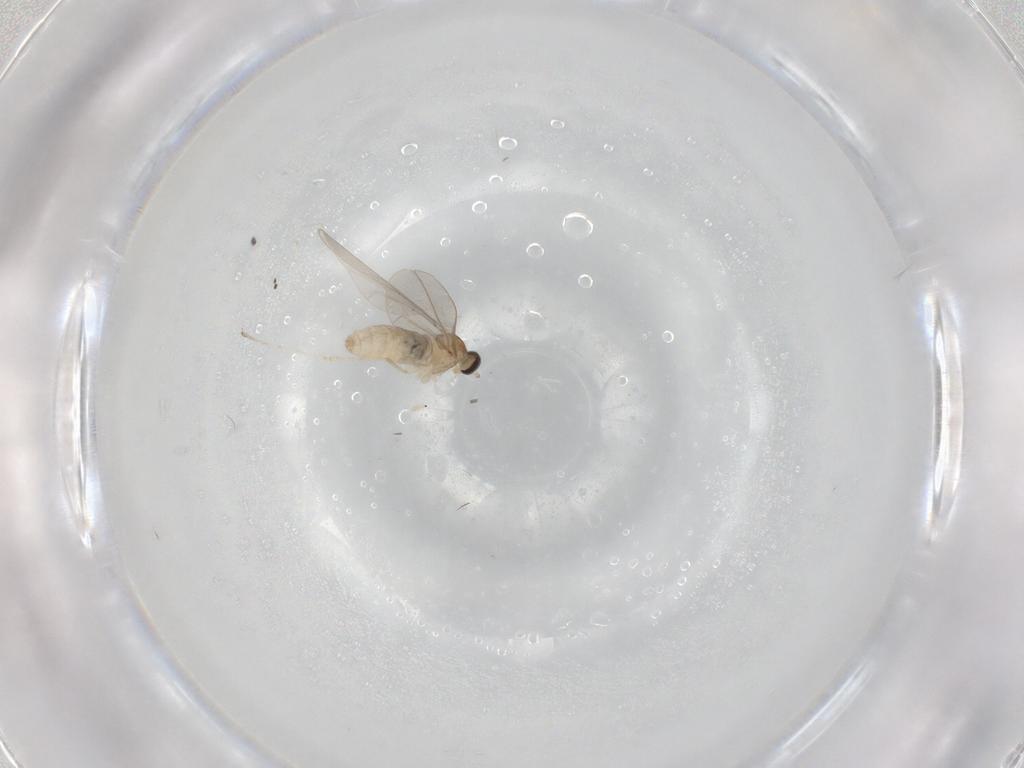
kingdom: Animalia
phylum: Arthropoda
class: Insecta
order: Diptera
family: Cecidomyiidae
